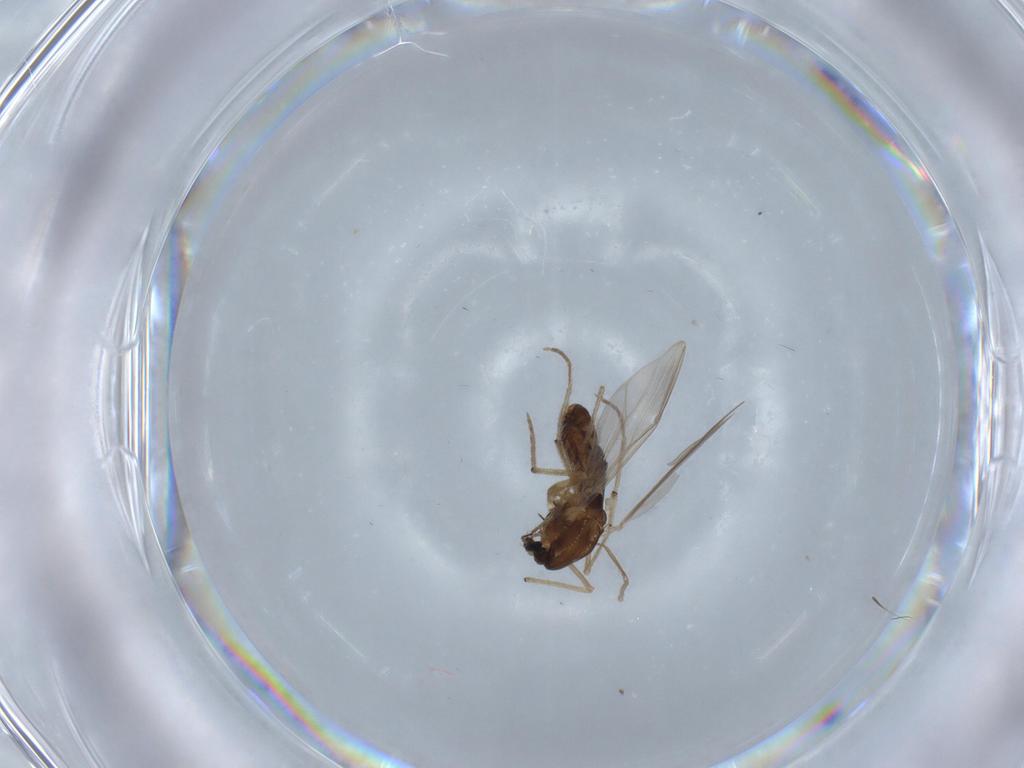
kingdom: Animalia
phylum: Arthropoda
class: Insecta
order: Diptera
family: Chironomidae
